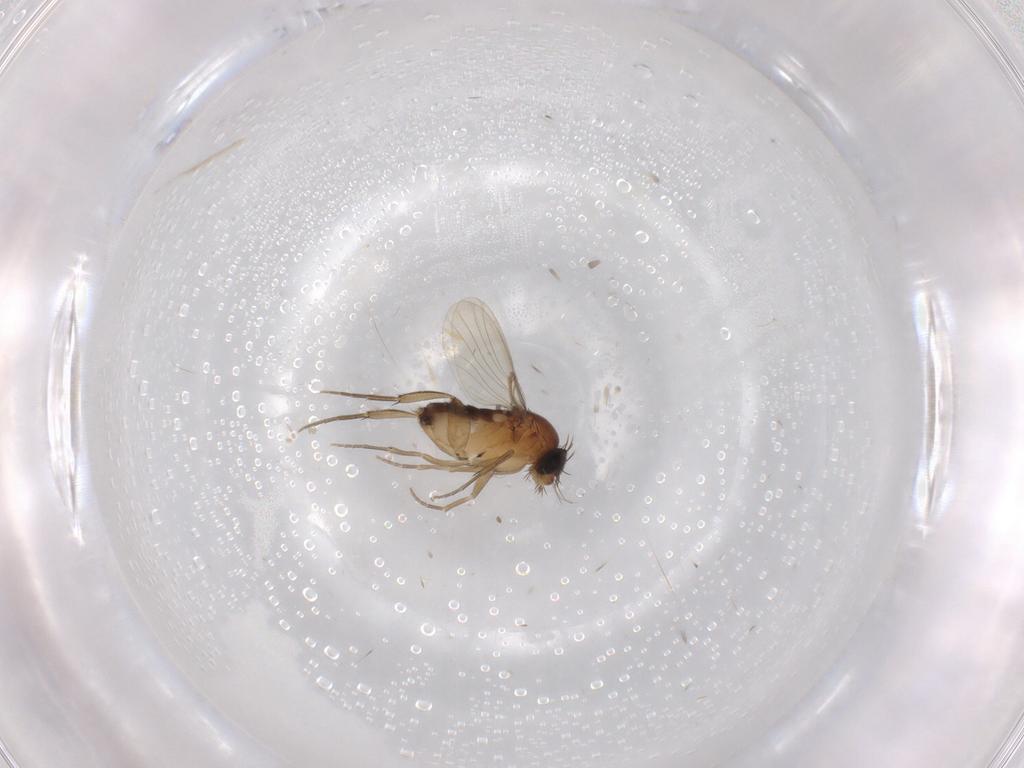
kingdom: Animalia
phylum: Arthropoda
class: Insecta
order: Diptera
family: Phoridae
